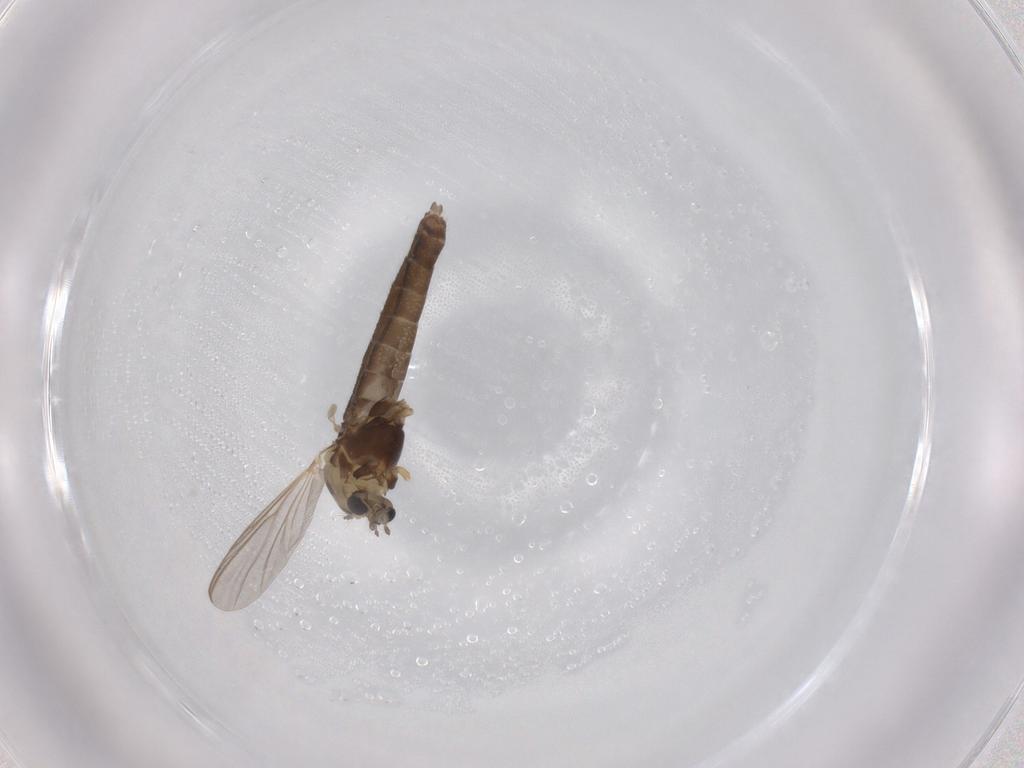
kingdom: Animalia
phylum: Arthropoda
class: Insecta
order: Diptera
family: Chironomidae
